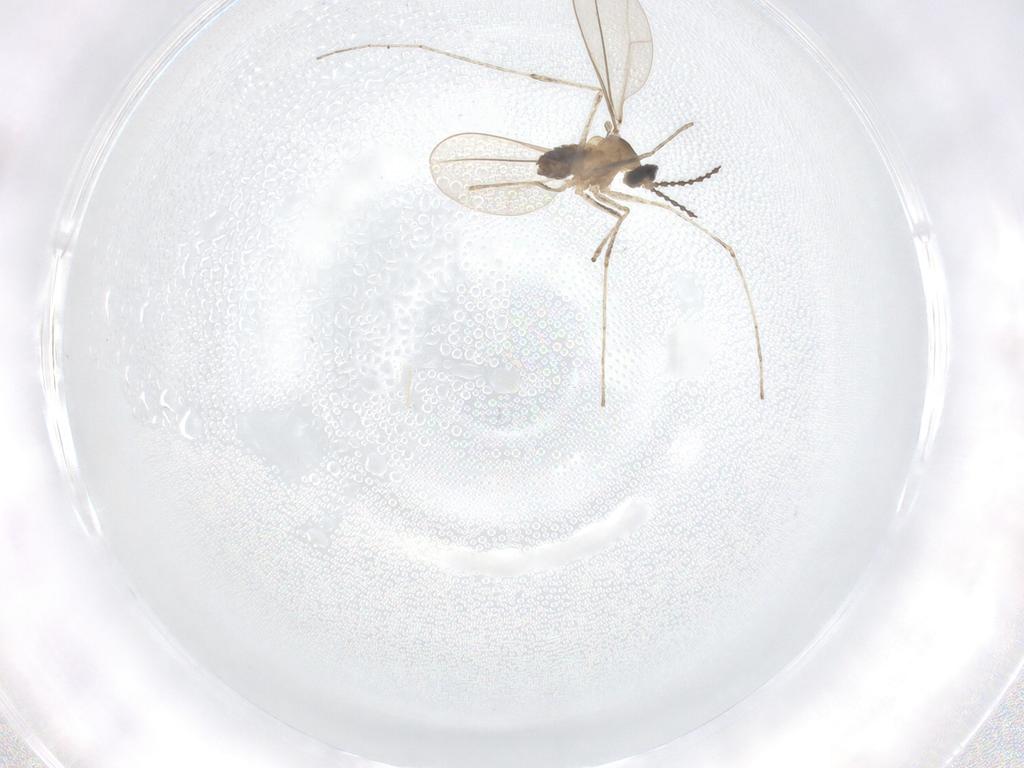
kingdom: Animalia
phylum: Arthropoda
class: Insecta
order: Diptera
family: Cecidomyiidae
